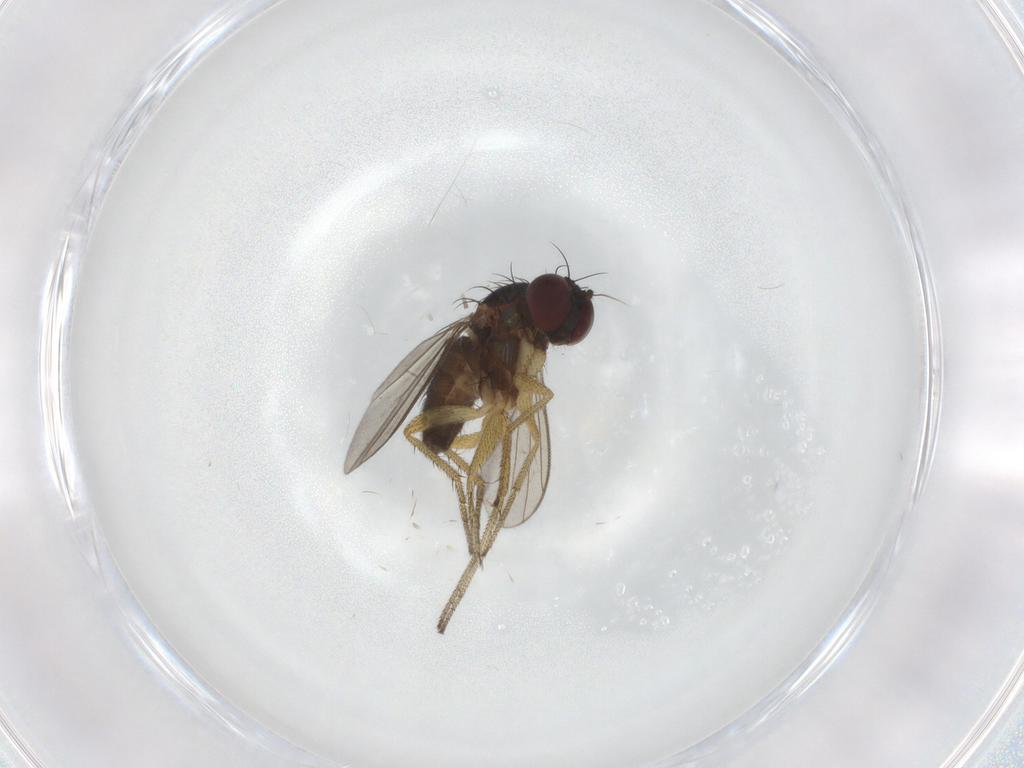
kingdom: Animalia
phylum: Arthropoda
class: Insecta
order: Diptera
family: Dolichopodidae
